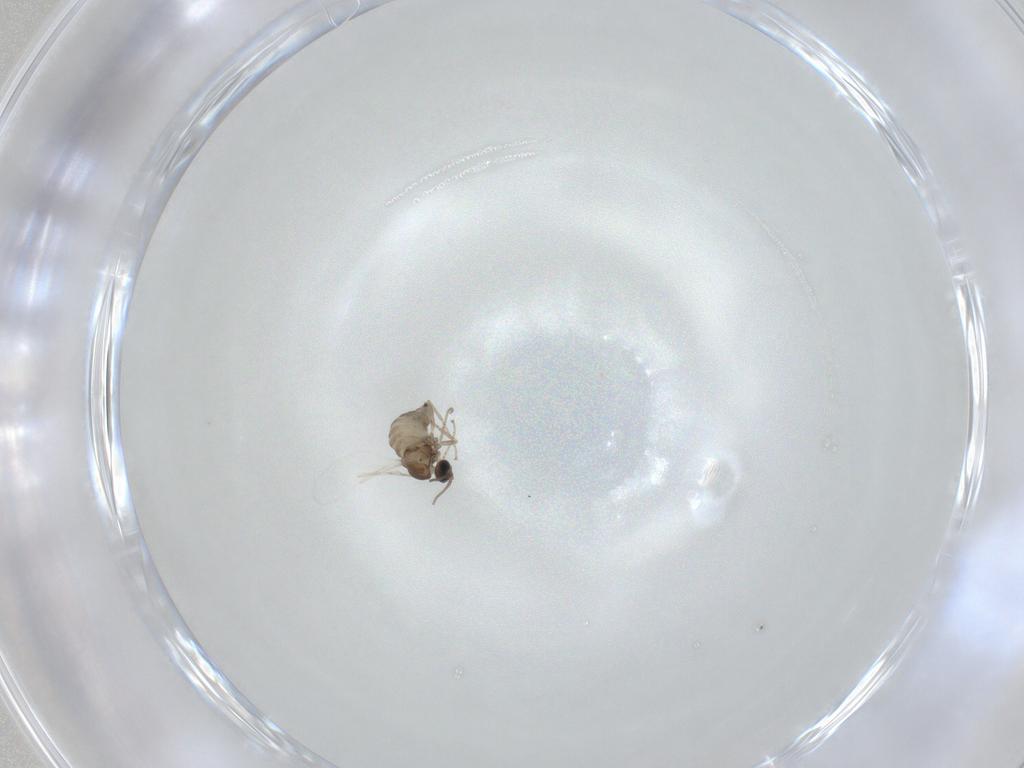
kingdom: Animalia
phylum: Arthropoda
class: Insecta
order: Diptera
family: Cecidomyiidae
